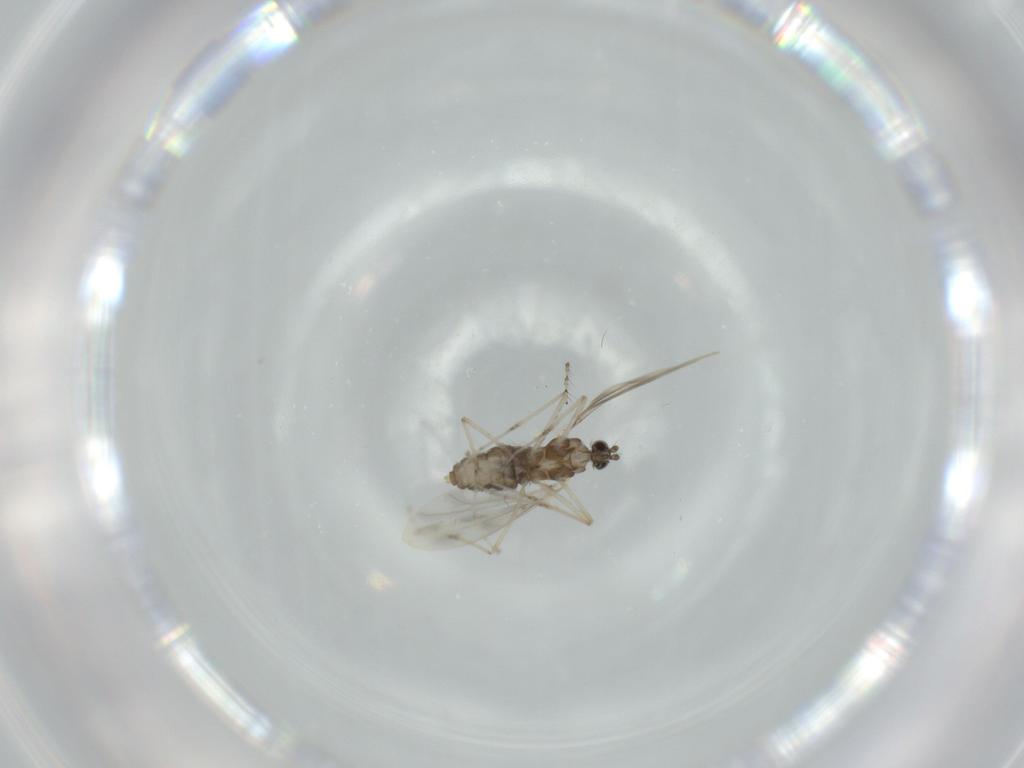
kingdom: Animalia
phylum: Arthropoda
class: Insecta
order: Diptera
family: Cecidomyiidae
